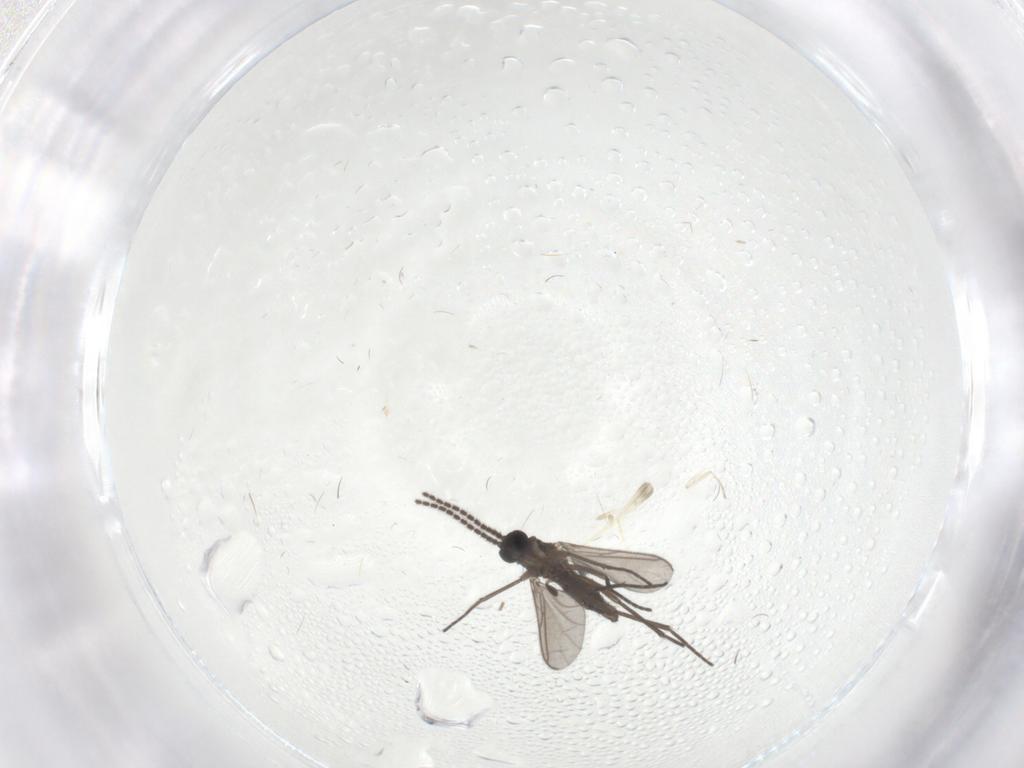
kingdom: Animalia
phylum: Arthropoda
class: Insecta
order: Diptera
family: Sciaridae
